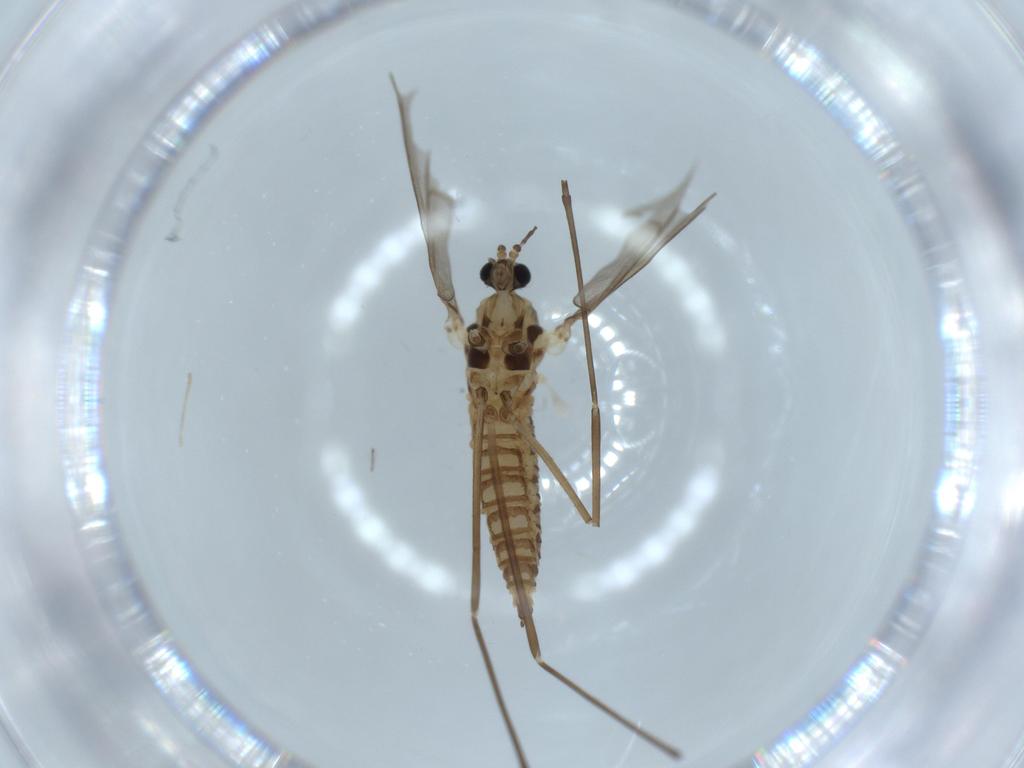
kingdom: Animalia
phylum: Arthropoda
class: Insecta
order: Diptera
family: Cecidomyiidae
